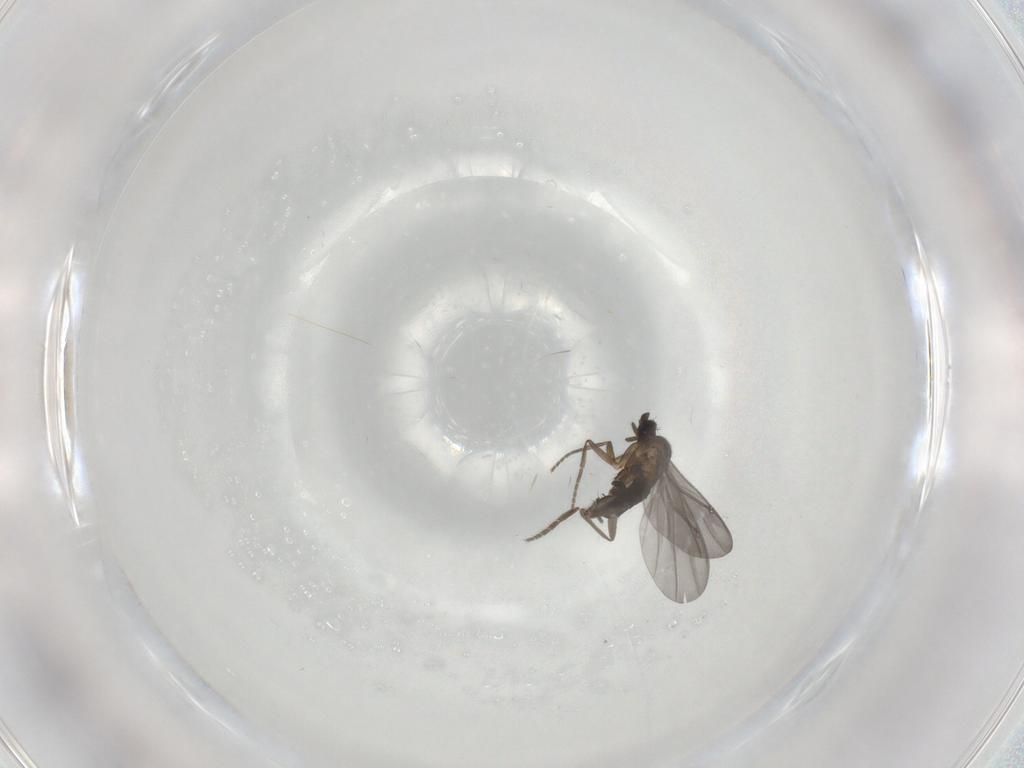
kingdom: Animalia
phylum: Arthropoda
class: Insecta
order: Diptera
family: Phoridae
